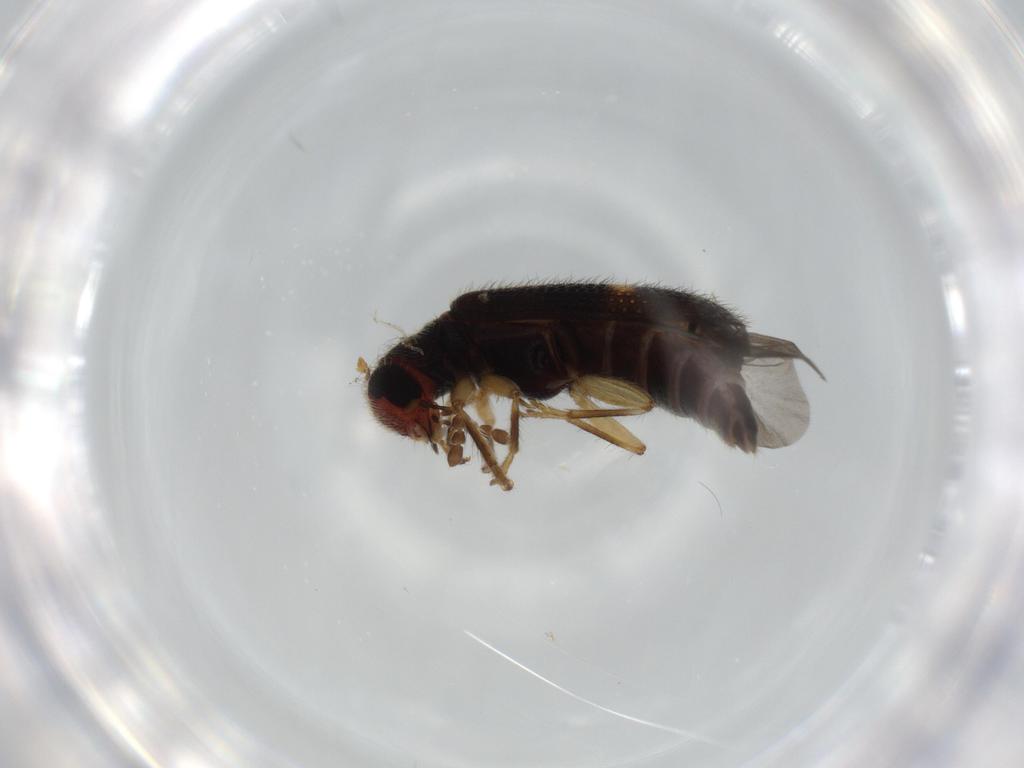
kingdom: Animalia
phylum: Arthropoda
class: Insecta
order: Coleoptera
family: Cleridae
